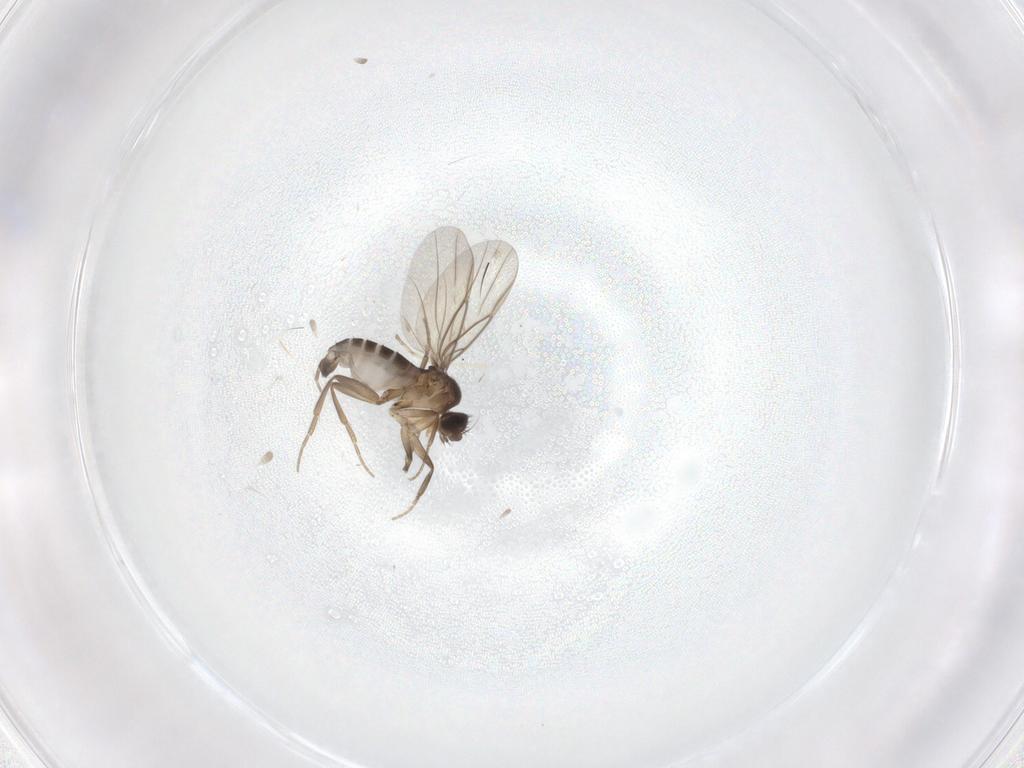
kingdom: Animalia
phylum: Arthropoda
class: Insecta
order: Diptera
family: Phoridae
